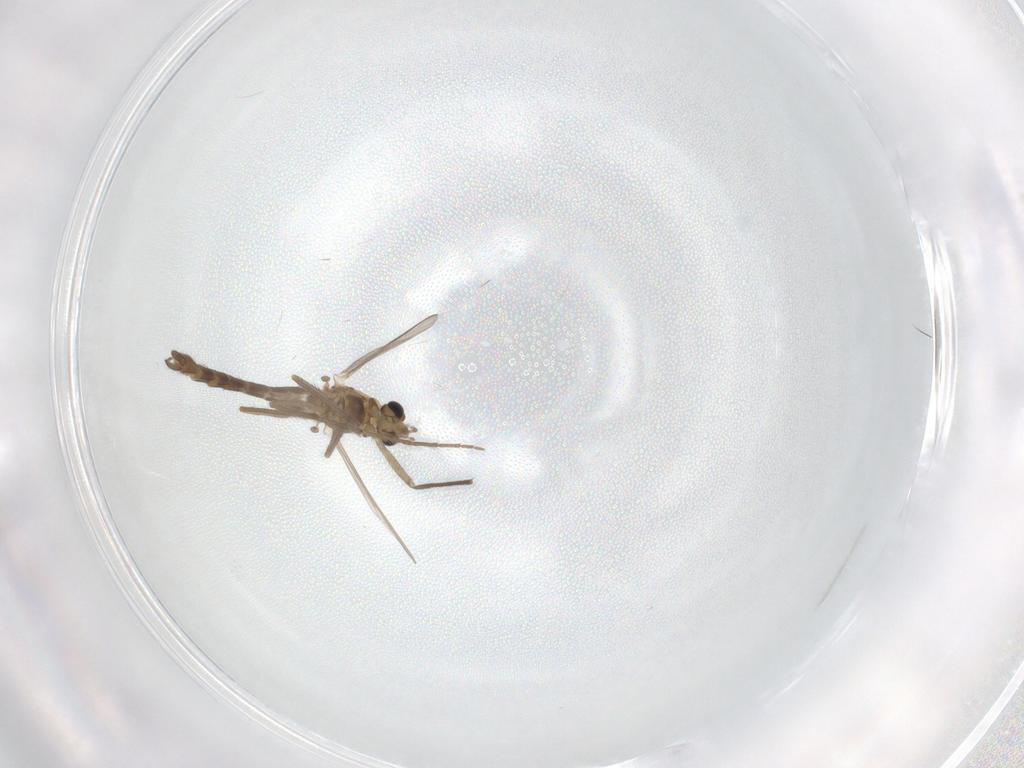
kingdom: Animalia
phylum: Arthropoda
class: Insecta
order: Diptera
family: Chironomidae
